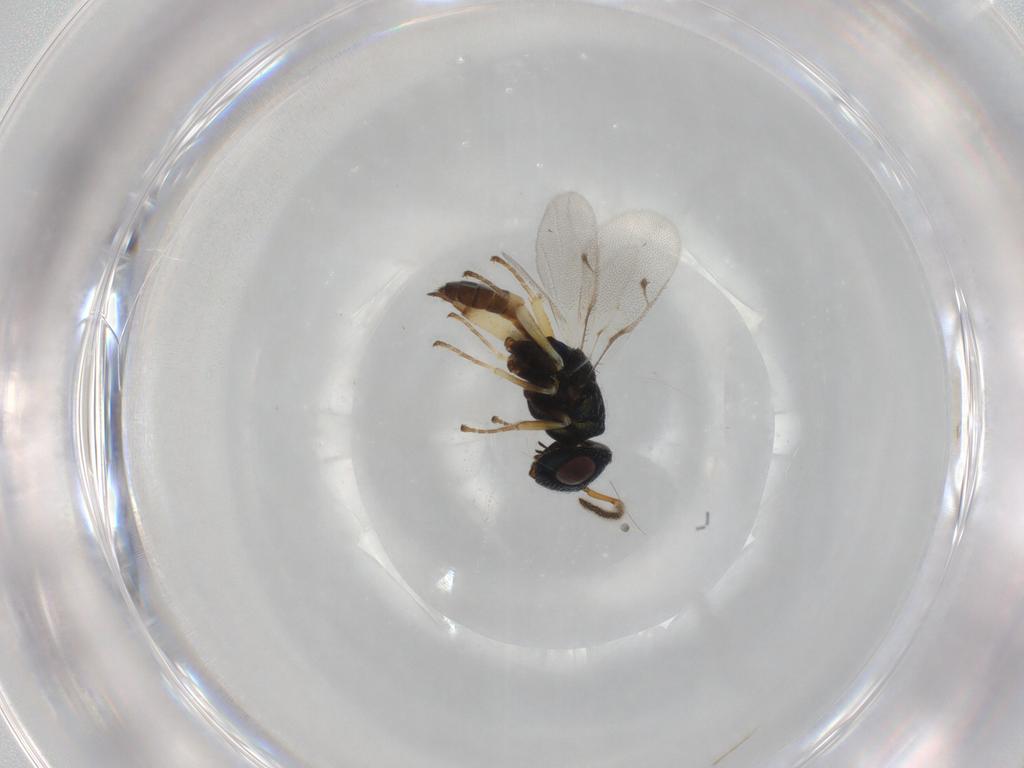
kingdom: Animalia
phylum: Arthropoda
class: Insecta
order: Hymenoptera
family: Pteromalidae
